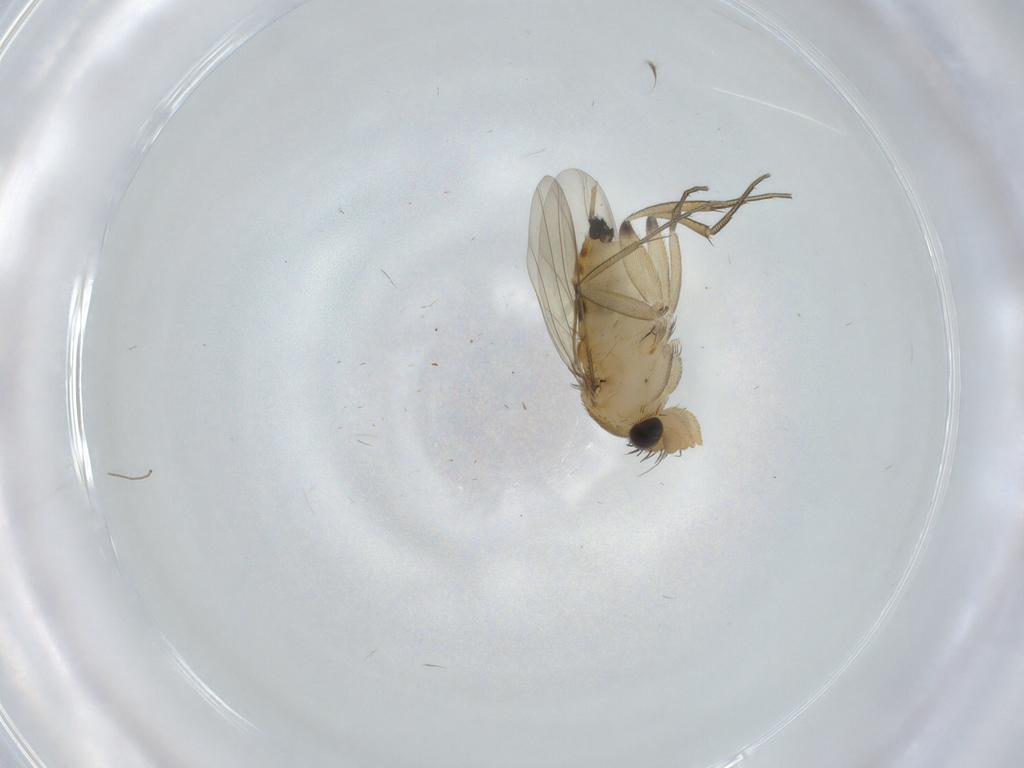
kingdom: Animalia
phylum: Arthropoda
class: Insecta
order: Diptera
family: Phoridae
